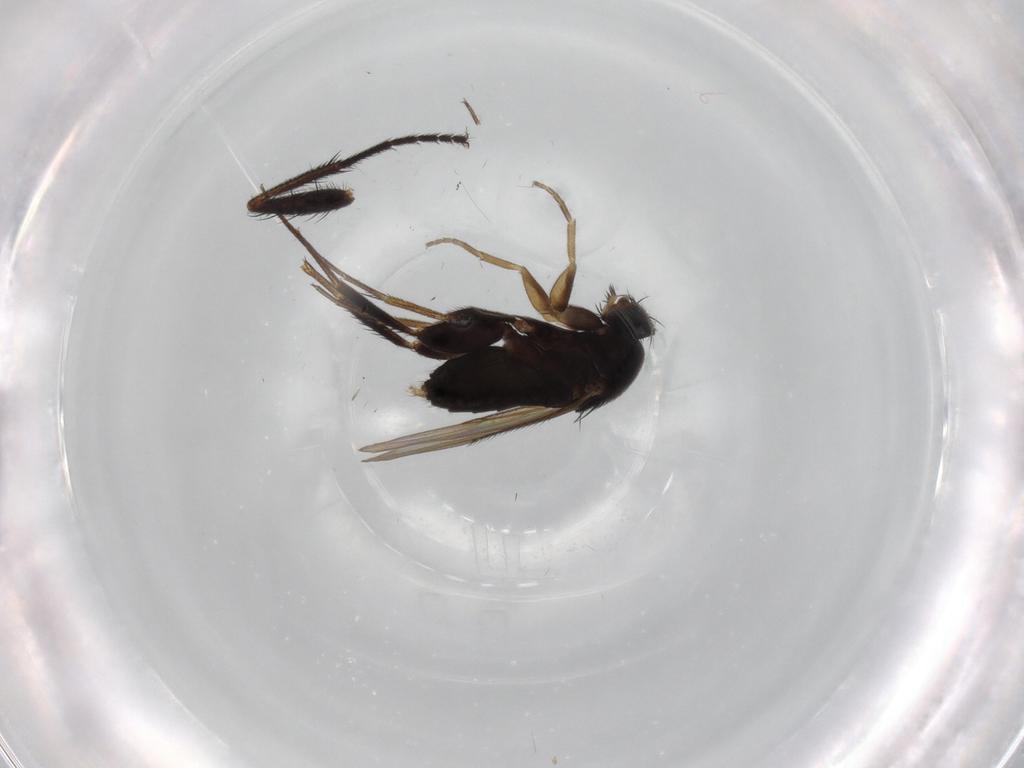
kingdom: Animalia
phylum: Arthropoda
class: Insecta
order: Diptera
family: Phoridae
